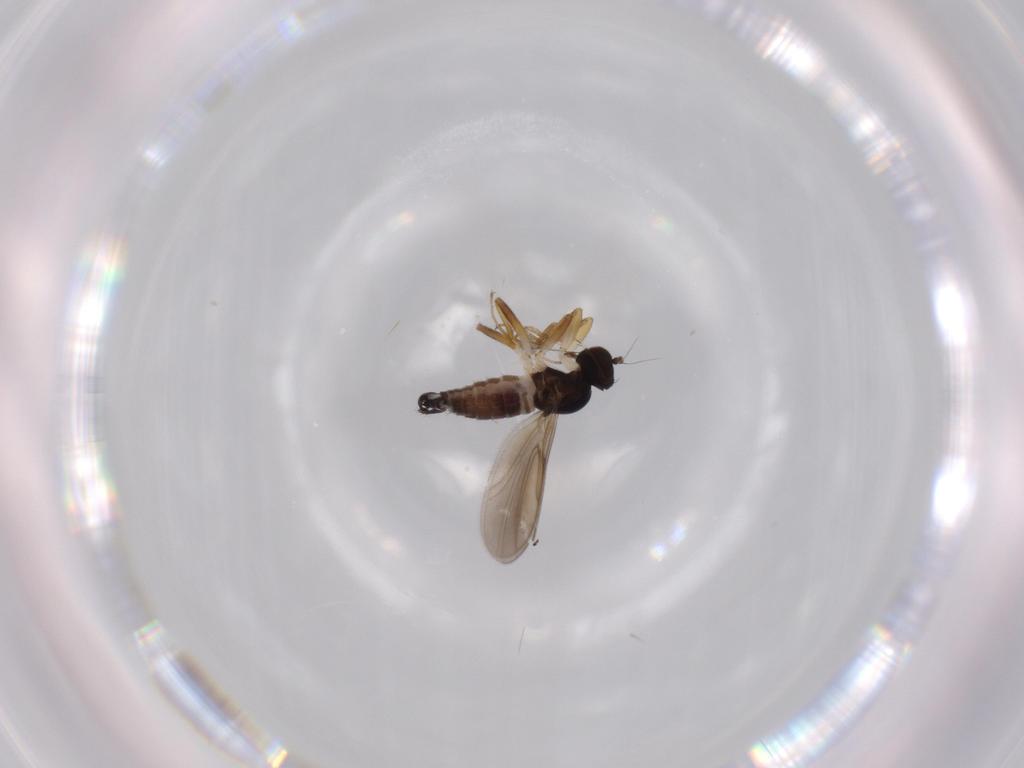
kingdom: Animalia
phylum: Arthropoda
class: Insecta
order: Diptera
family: Hybotidae
